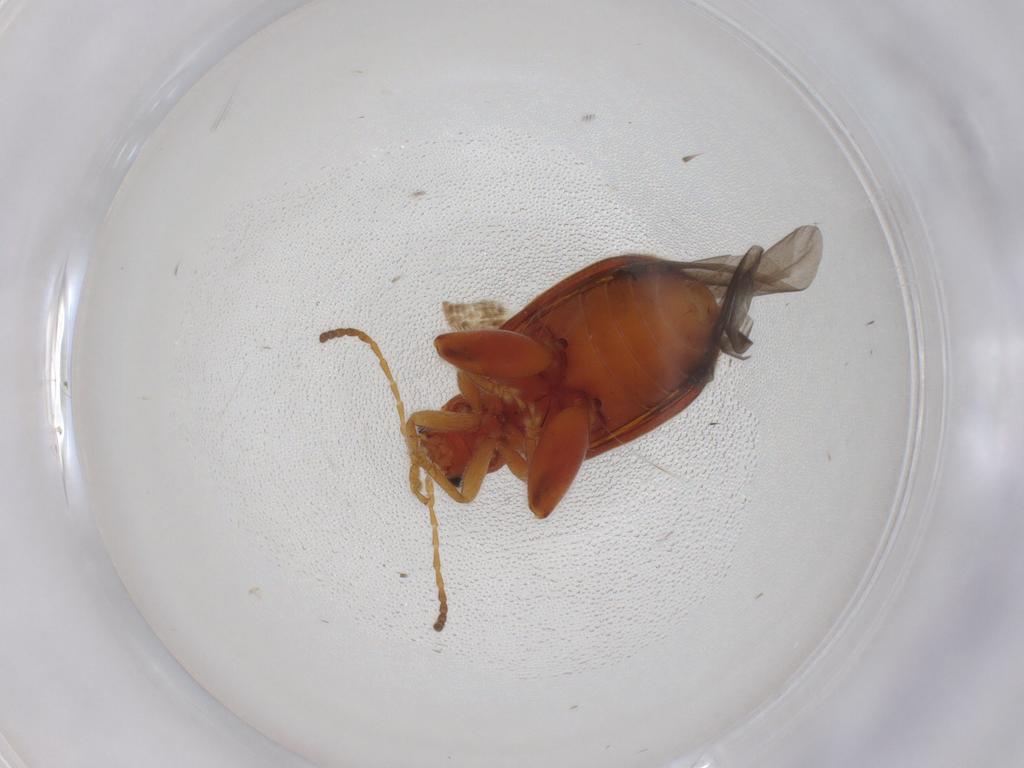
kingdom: Animalia
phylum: Arthropoda
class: Insecta
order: Coleoptera
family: Chrysomelidae
